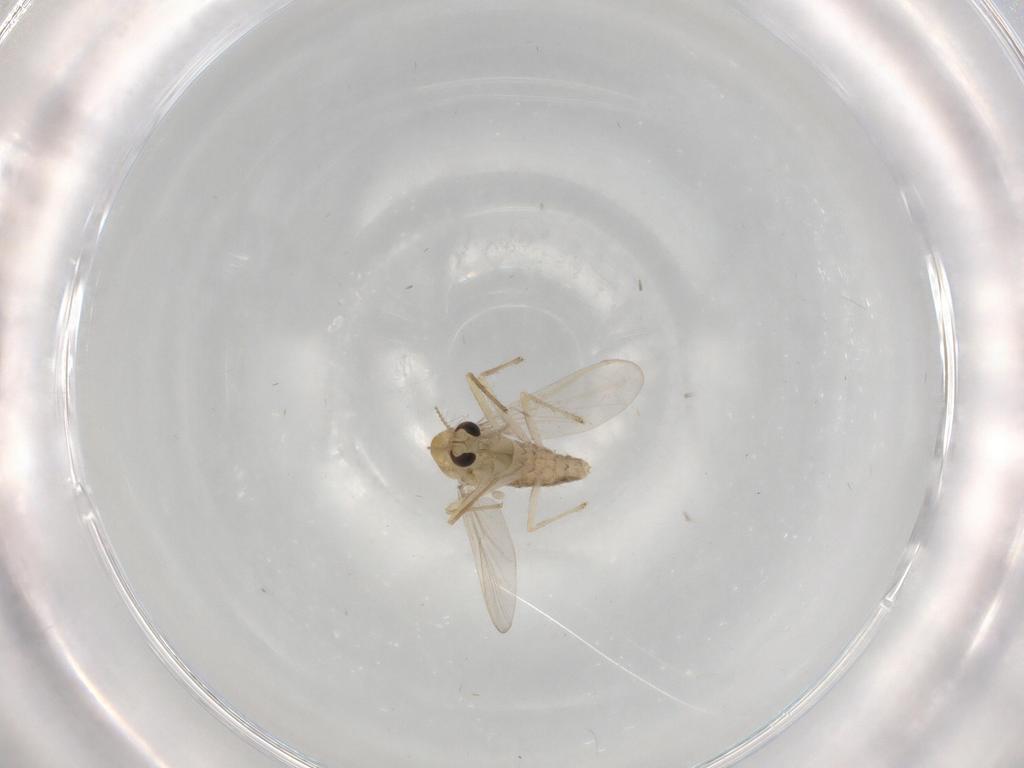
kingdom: Animalia
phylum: Arthropoda
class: Insecta
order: Diptera
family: Chironomidae
